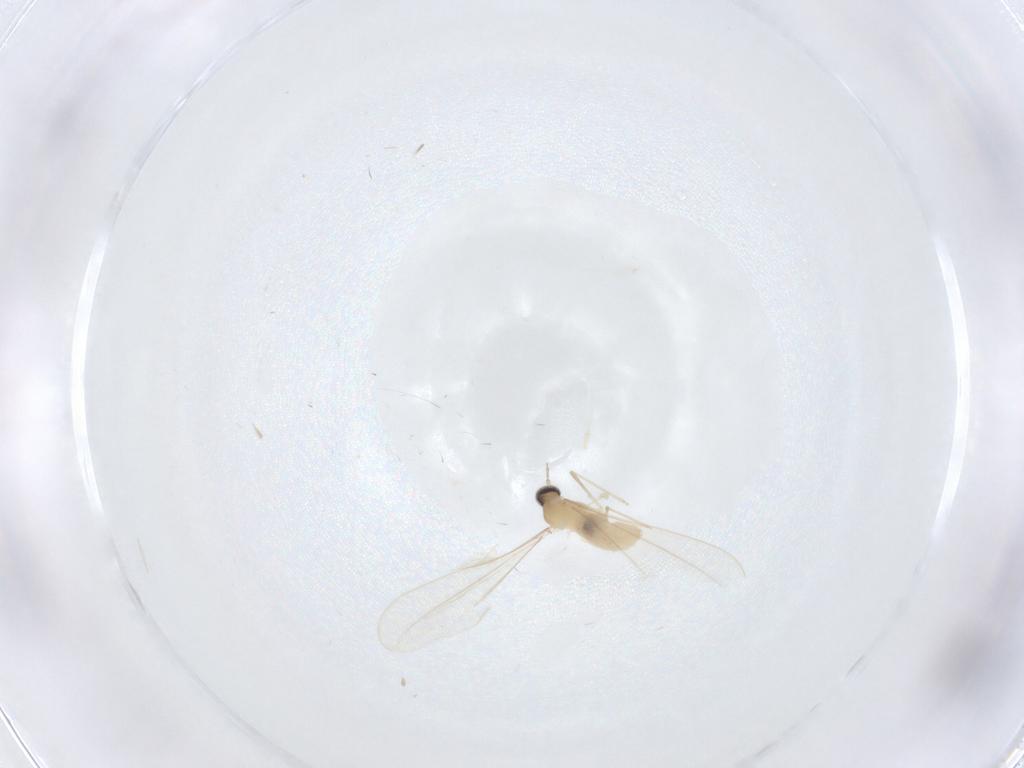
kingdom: Animalia
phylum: Arthropoda
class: Insecta
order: Diptera
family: Cecidomyiidae
